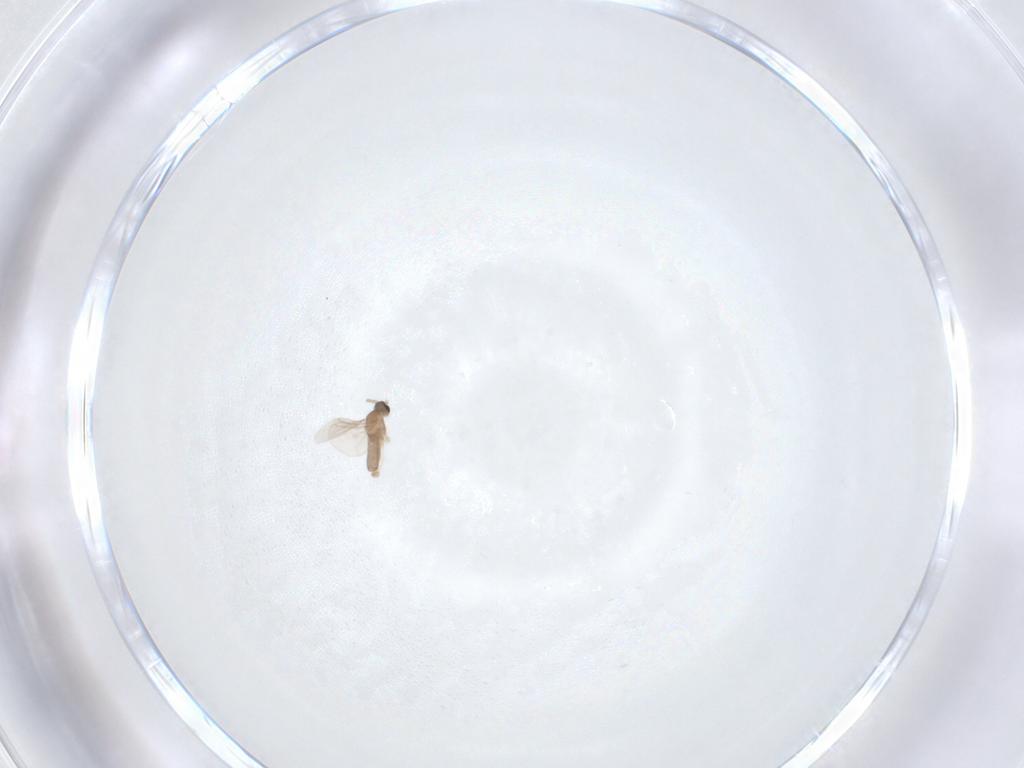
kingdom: Animalia
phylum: Arthropoda
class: Insecta
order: Diptera
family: Cecidomyiidae
